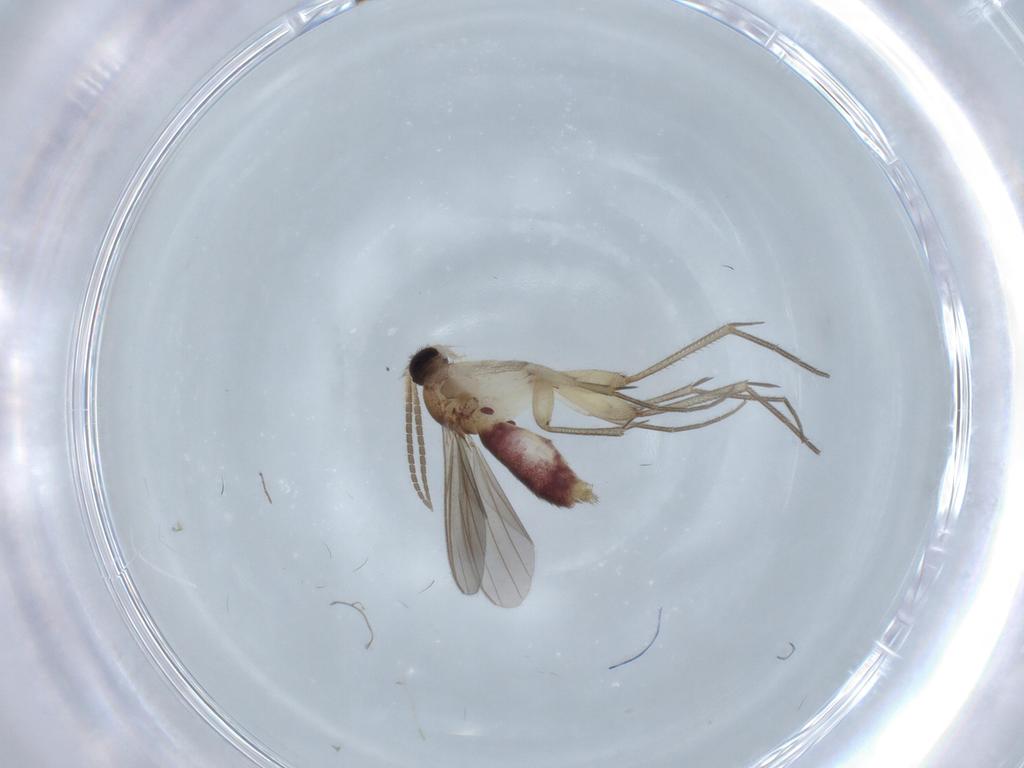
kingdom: Animalia
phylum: Arthropoda
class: Insecta
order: Diptera
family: Mycetophilidae
